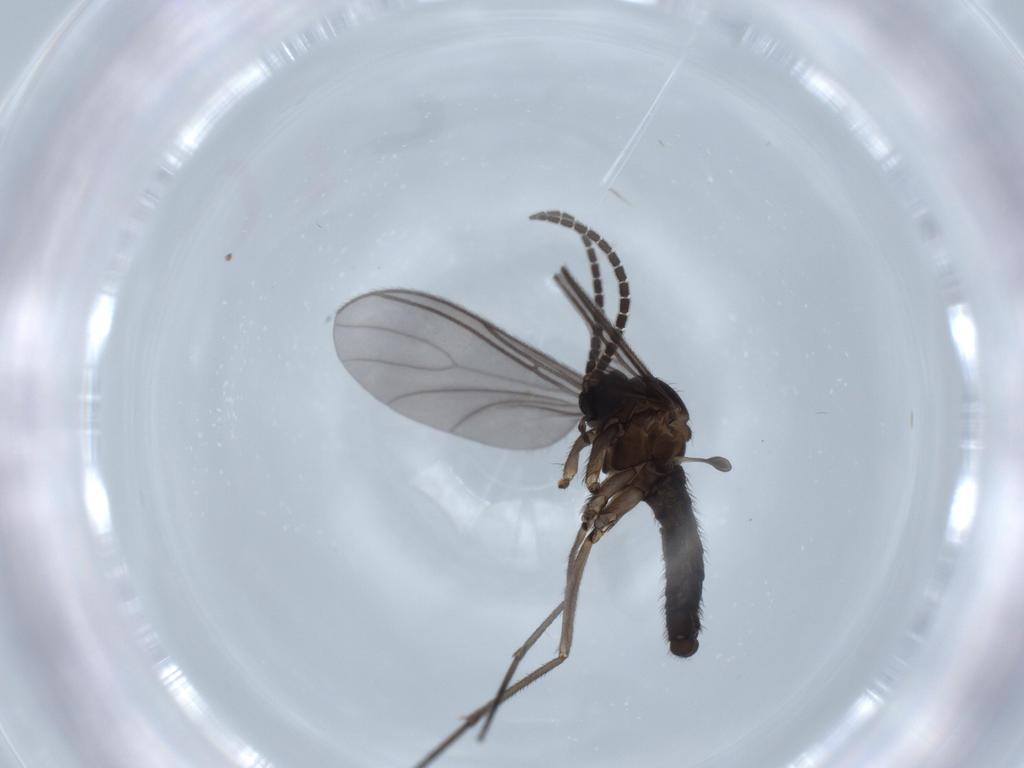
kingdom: Animalia
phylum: Arthropoda
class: Insecta
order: Diptera
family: Sciaridae
